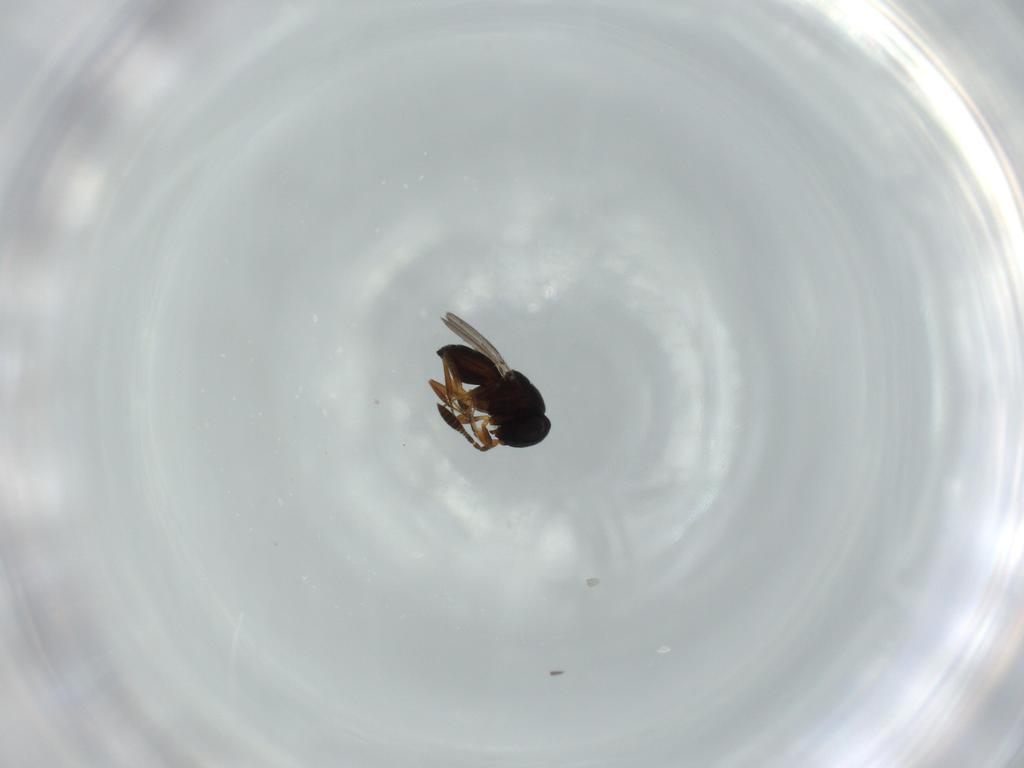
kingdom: Animalia
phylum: Arthropoda
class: Insecta
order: Hymenoptera
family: Scelionidae
